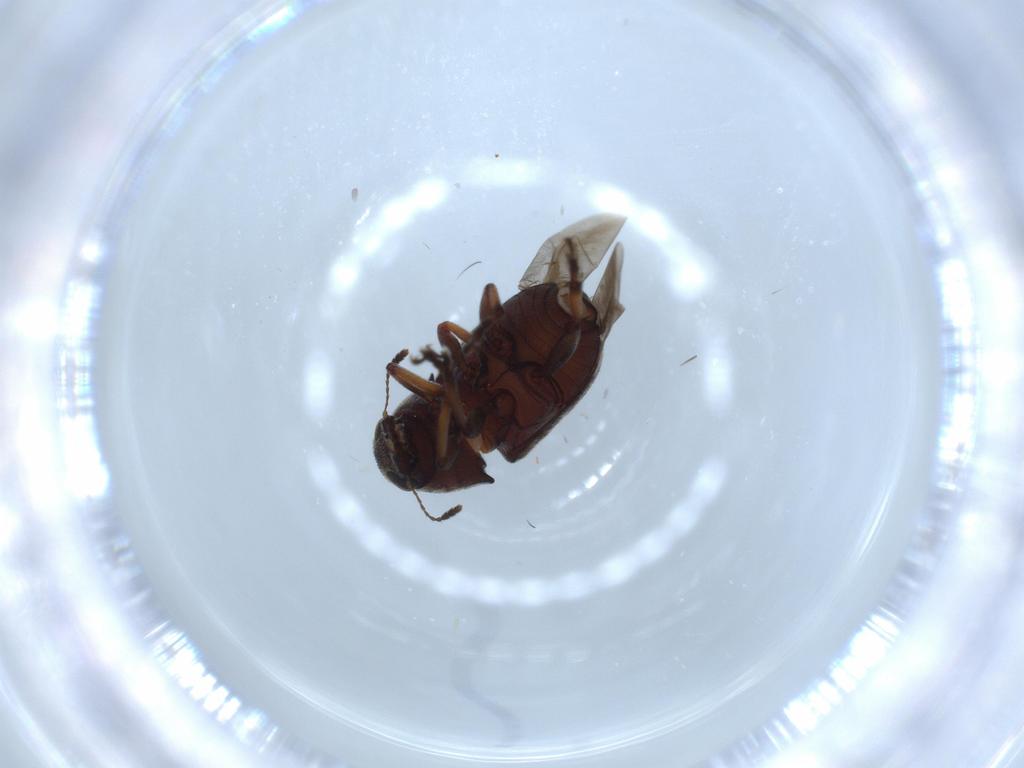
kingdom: Animalia
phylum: Arthropoda
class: Insecta
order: Coleoptera
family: Anthribidae
